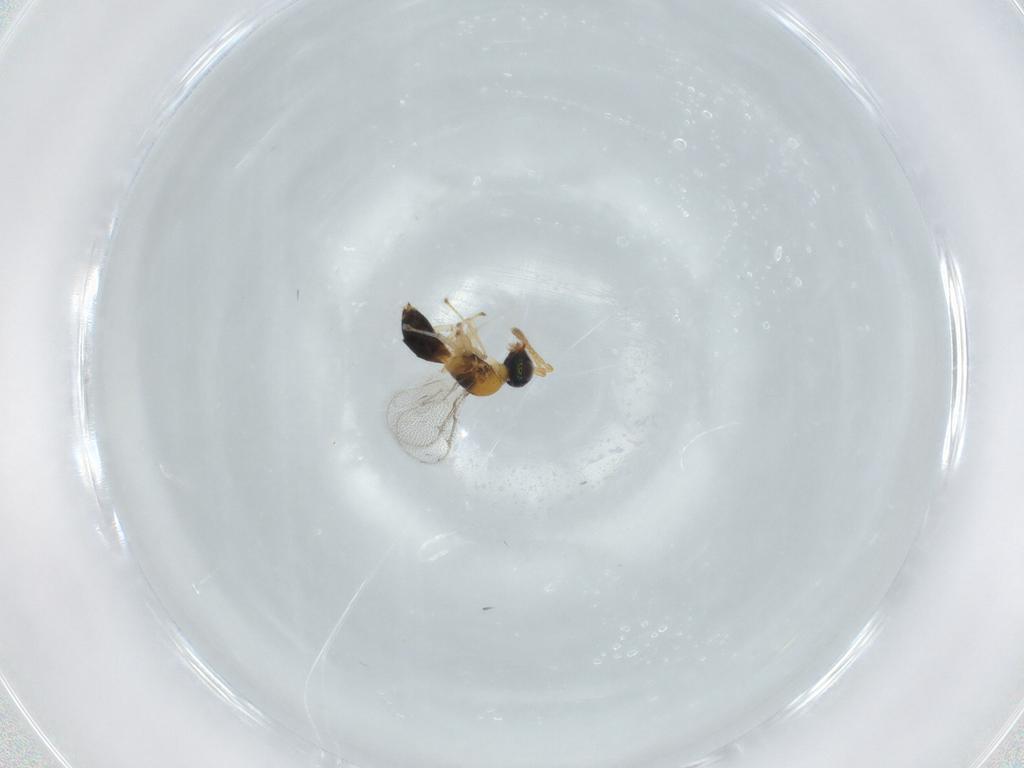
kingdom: Animalia
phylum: Arthropoda
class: Insecta
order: Hymenoptera
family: Torymidae
